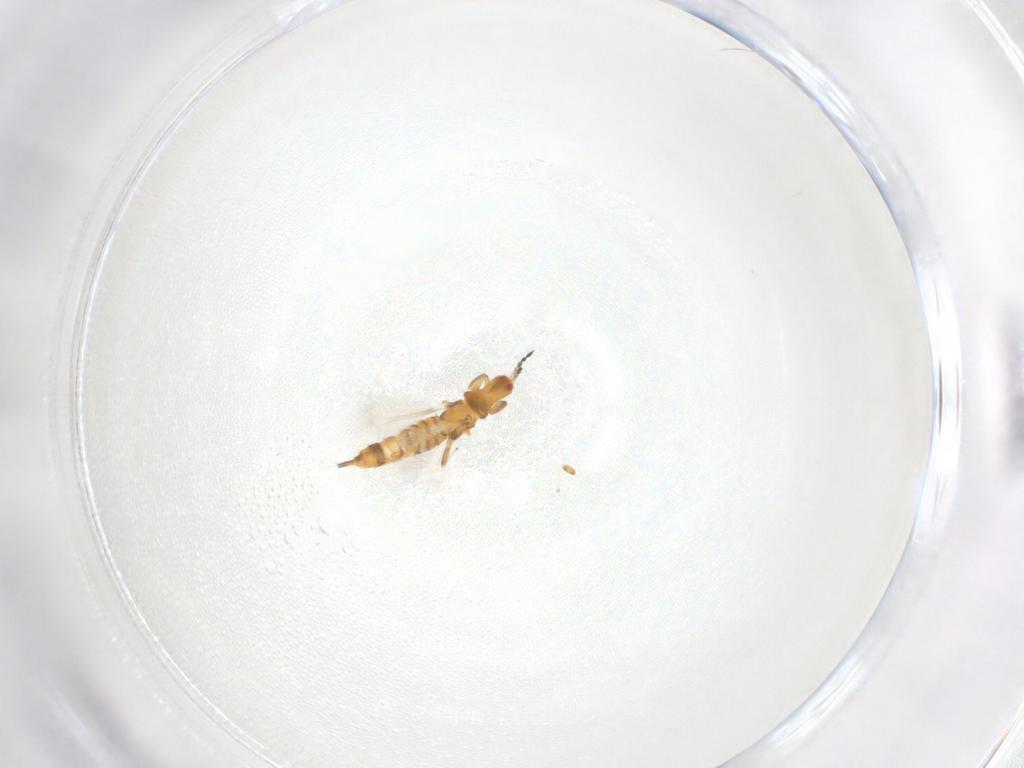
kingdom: Animalia
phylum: Arthropoda
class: Insecta
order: Thysanoptera
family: Phlaeothripidae
